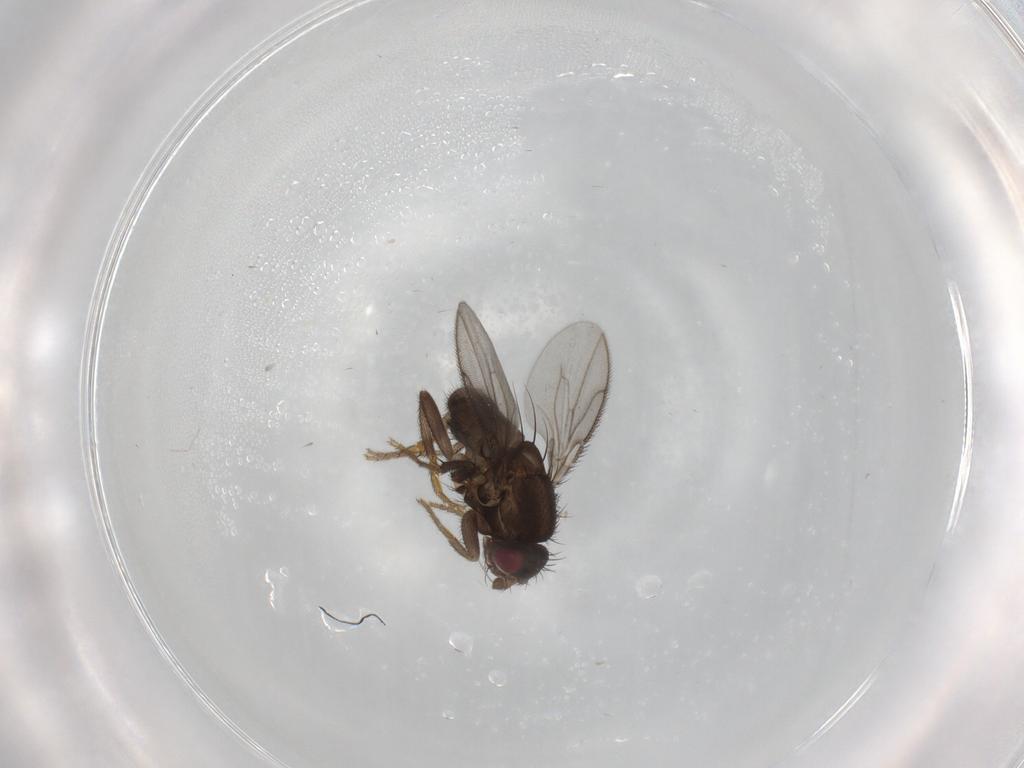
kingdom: Animalia
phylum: Arthropoda
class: Insecta
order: Diptera
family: Sphaeroceridae
